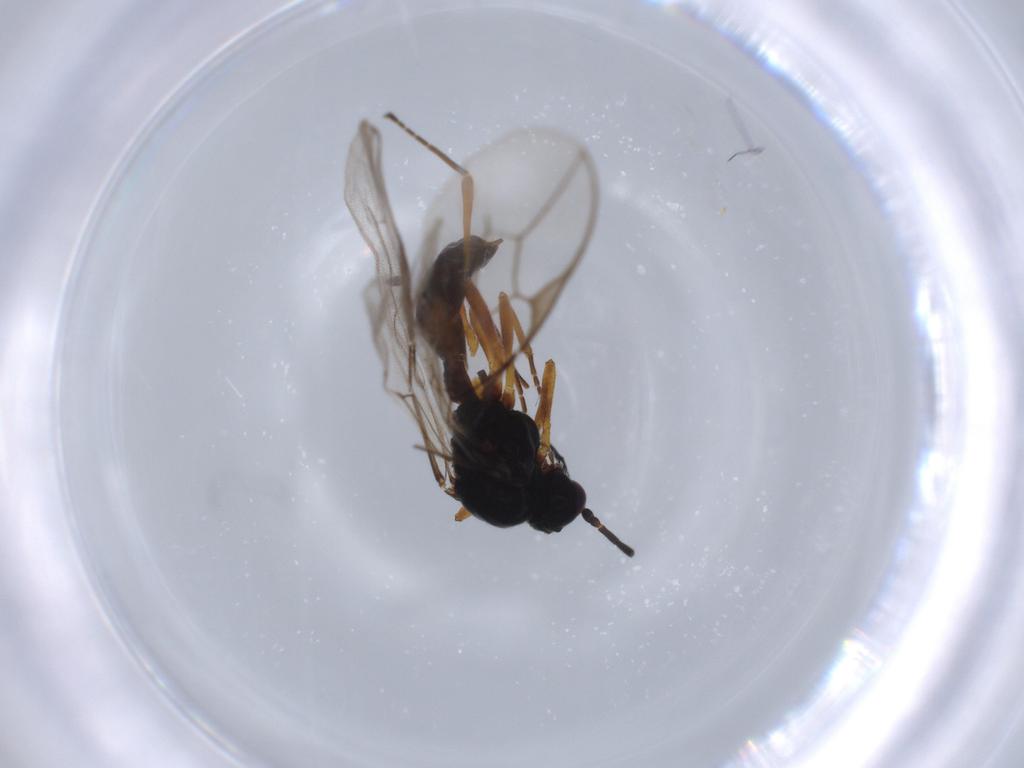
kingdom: Animalia
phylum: Arthropoda
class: Insecta
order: Hymenoptera
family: Braconidae
